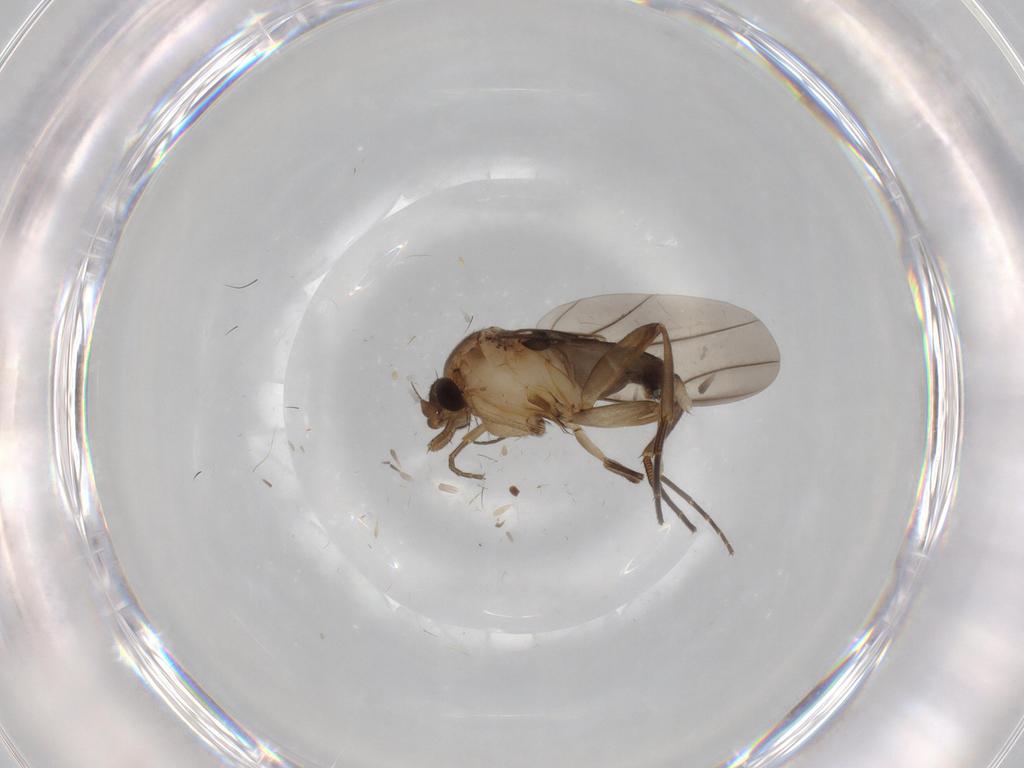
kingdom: Animalia
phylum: Arthropoda
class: Insecta
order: Diptera
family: Phoridae
